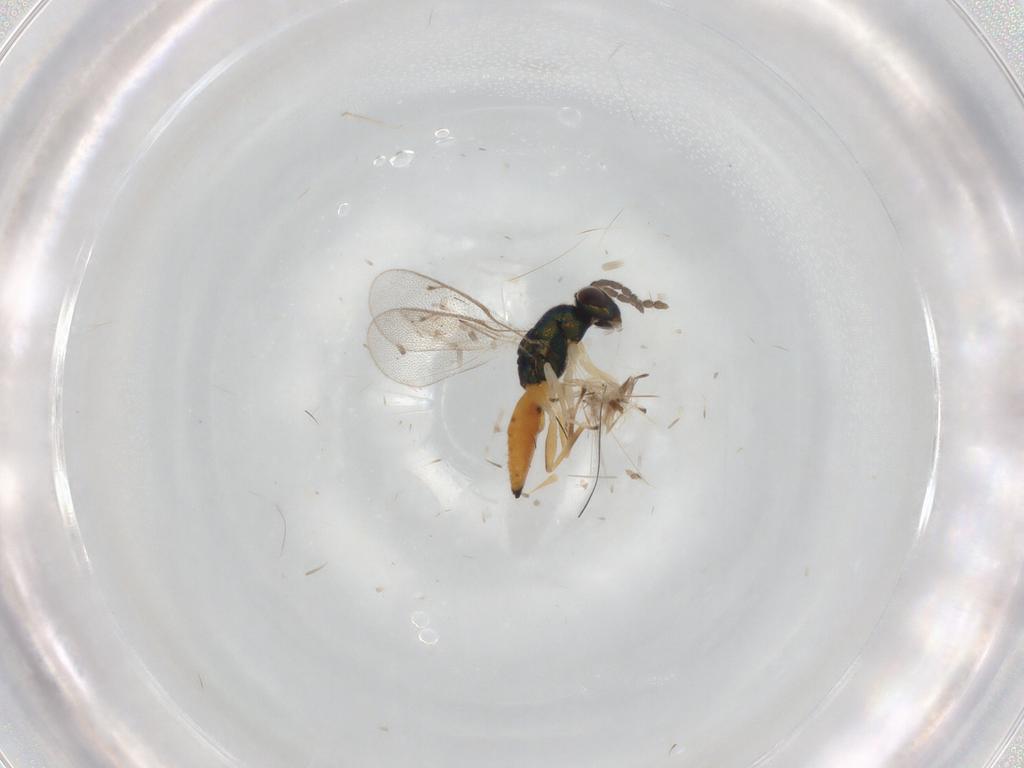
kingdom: Animalia
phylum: Arthropoda
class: Insecta
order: Hymenoptera
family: Eulophidae
